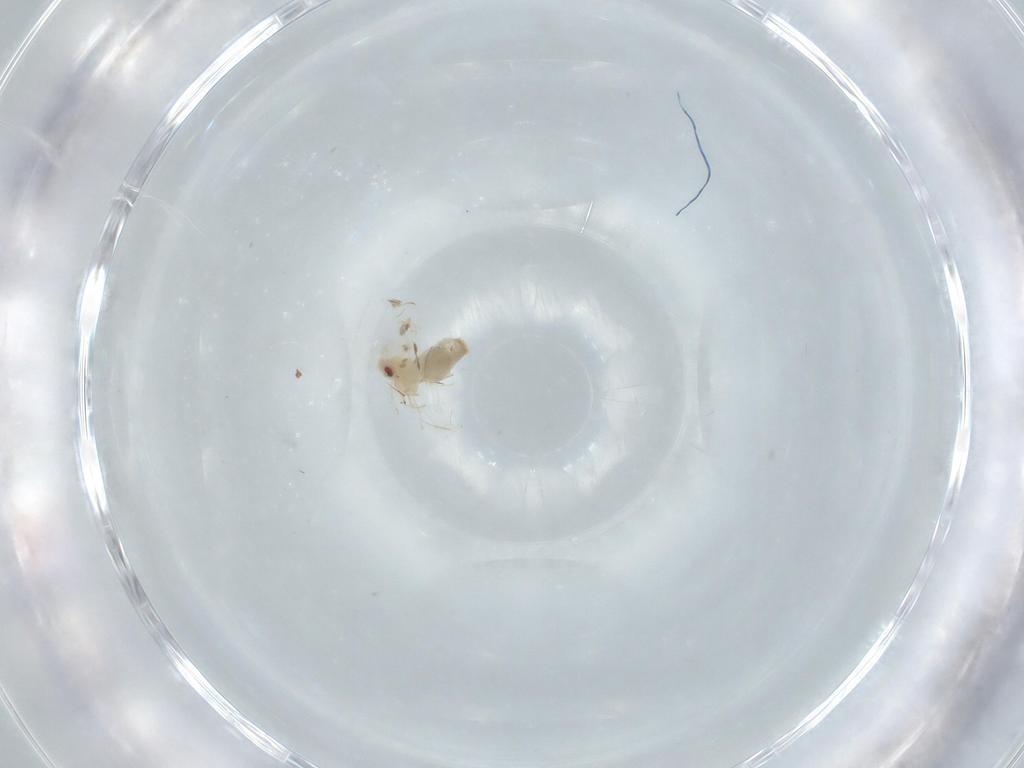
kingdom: Animalia
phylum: Arthropoda
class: Insecta
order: Hemiptera
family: Aleyrodidae
